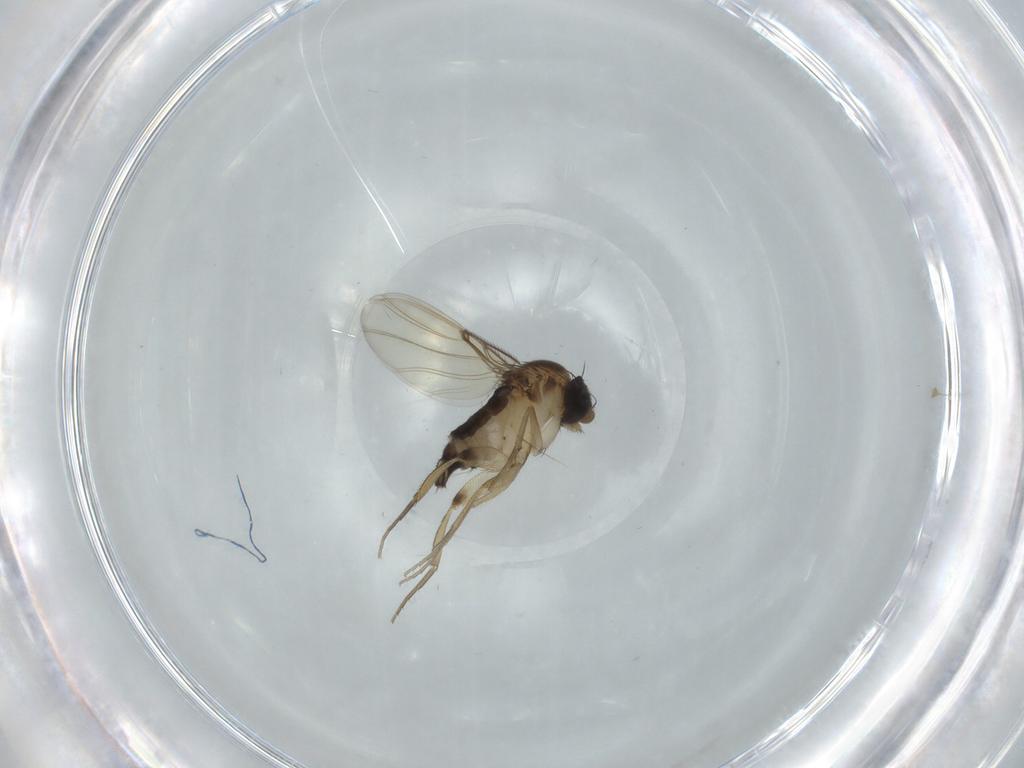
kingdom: Animalia
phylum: Arthropoda
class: Insecta
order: Diptera
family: Phoridae
